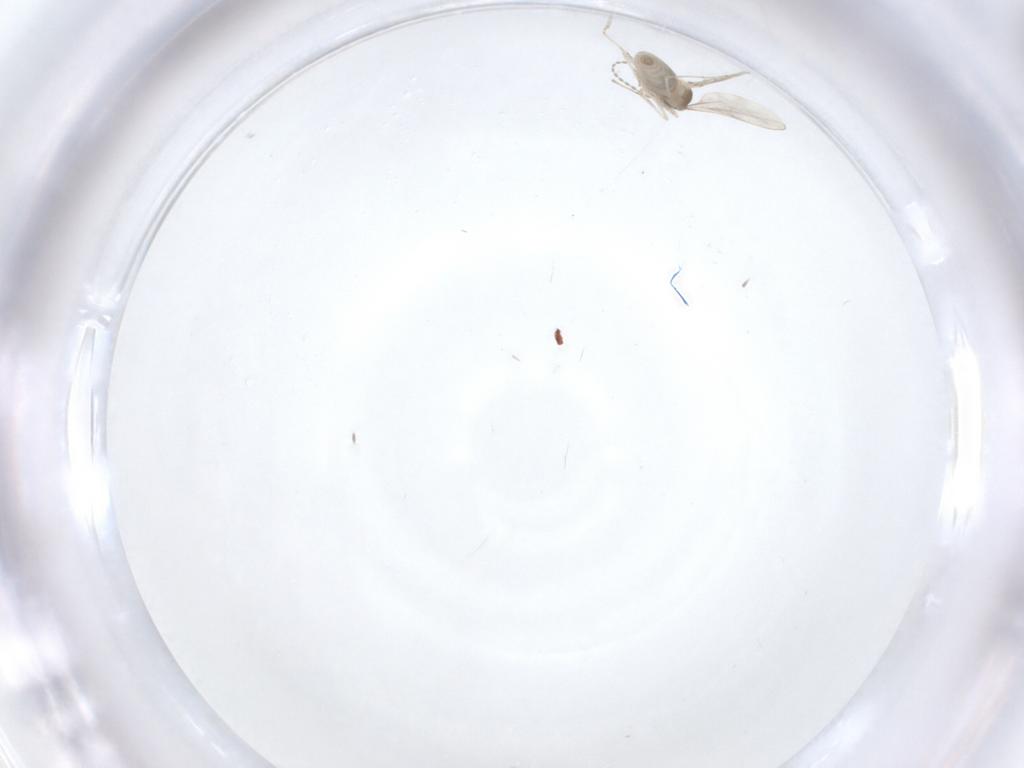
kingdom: Animalia
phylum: Arthropoda
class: Insecta
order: Diptera
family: Cecidomyiidae
